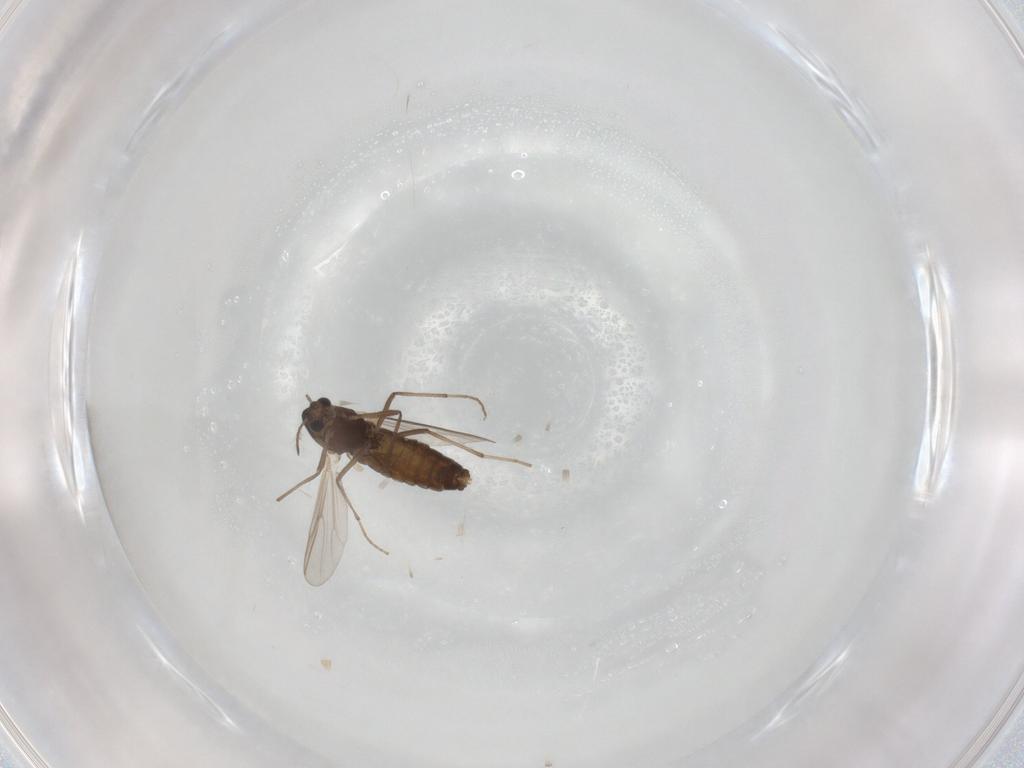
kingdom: Animalia
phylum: Arthropoda
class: Insecta
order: Diptera
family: Chironomidae
